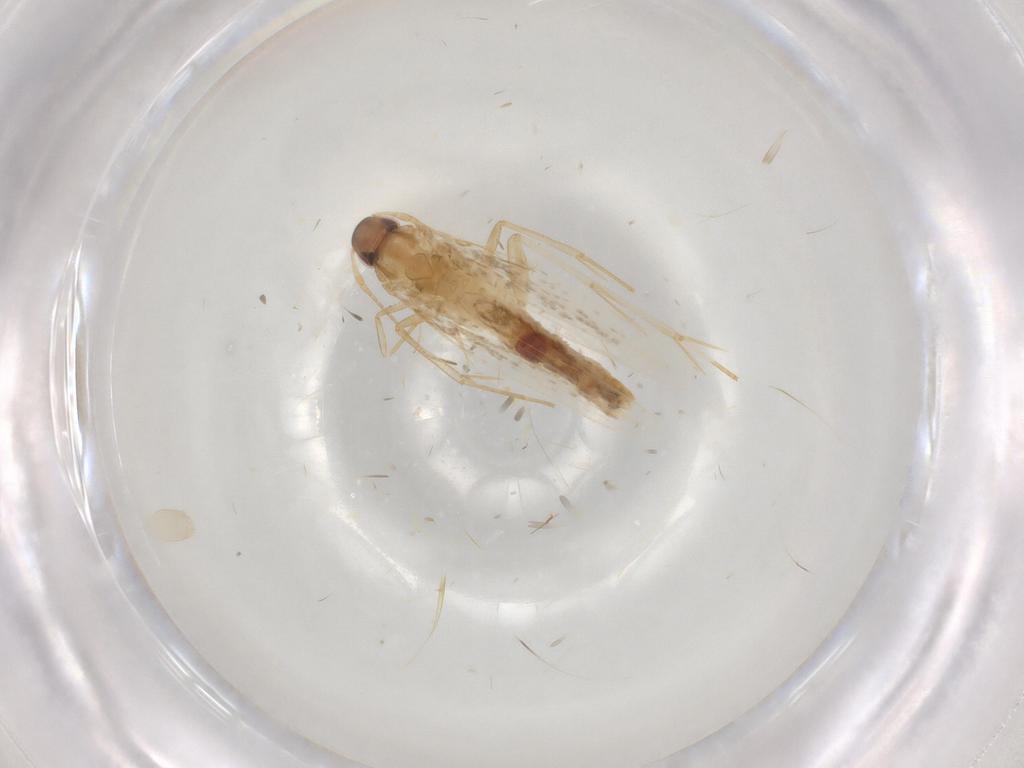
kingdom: Animalia
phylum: Arthropoda
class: Insecta
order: Lepidoptera
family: Cosmopterigidae
